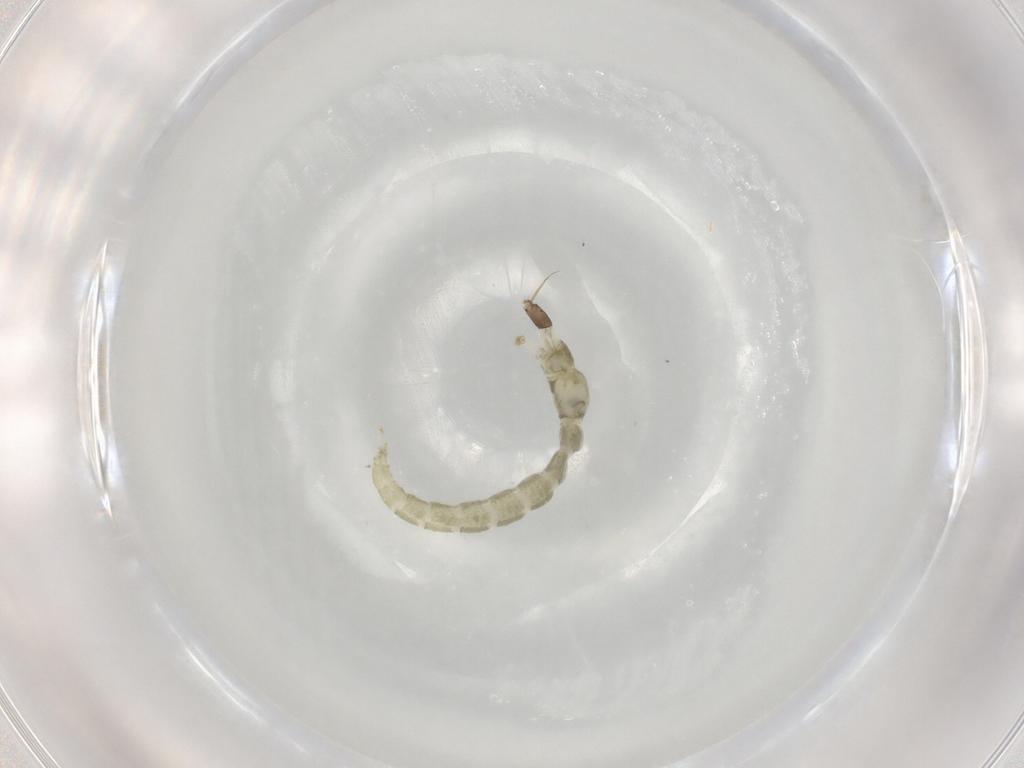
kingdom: Animalia
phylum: Arthropoda
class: Insecta
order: Diptera
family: Chironomidae
